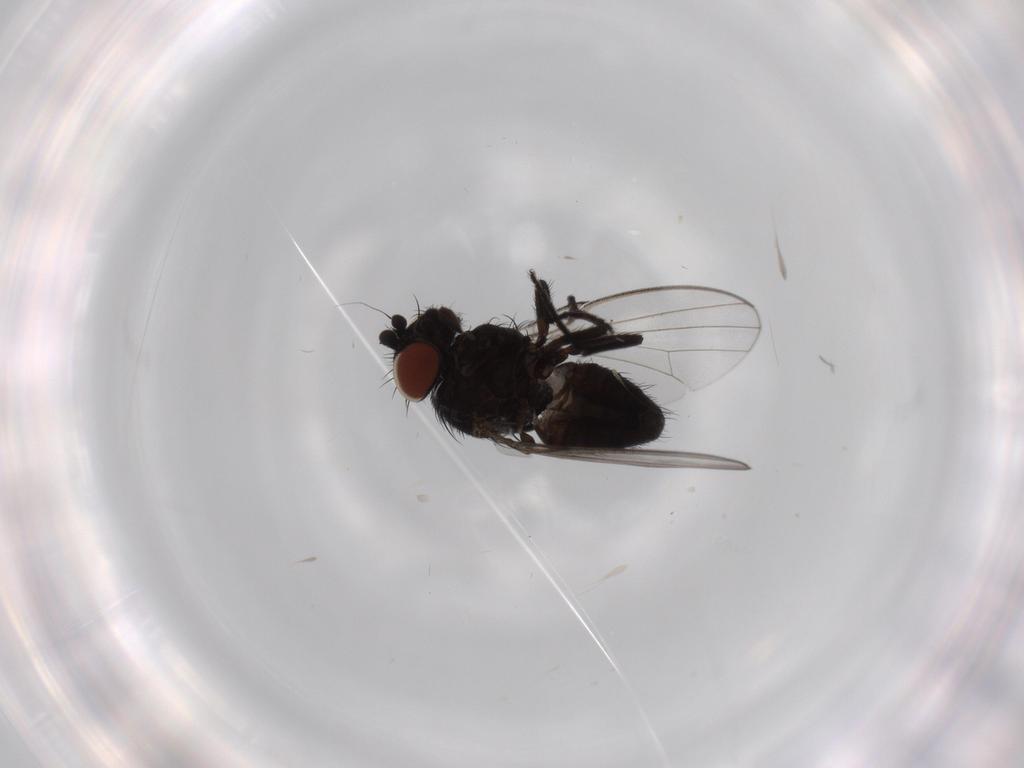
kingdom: Animalia
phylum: Arthropoda
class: Insecta
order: Diptera
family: Milichiidae
